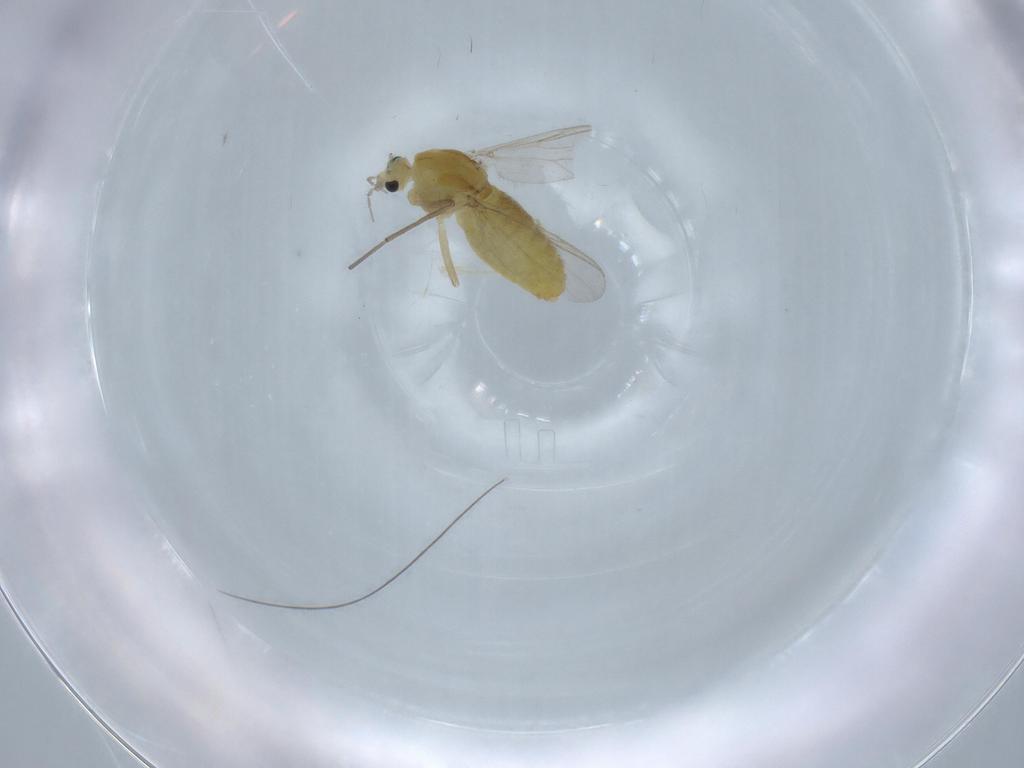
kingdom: Animalia
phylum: Arthropoda
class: Insecta
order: Diptera
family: Chironomidae
